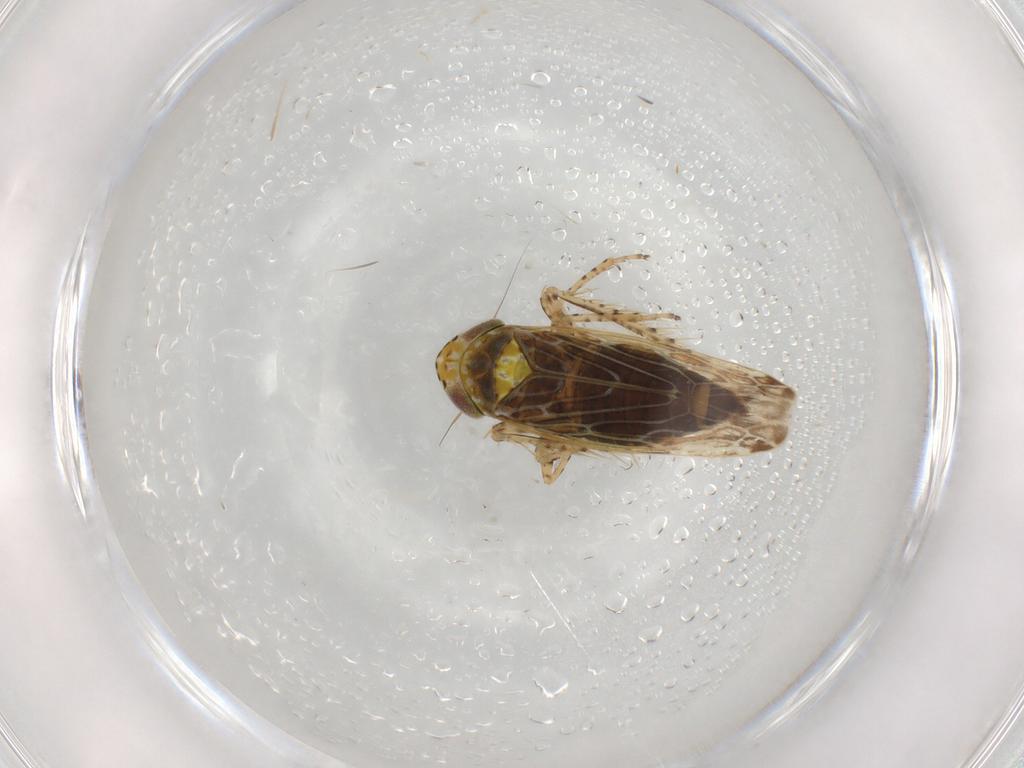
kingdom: Animalia
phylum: Arthropoda
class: Insecta
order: Hemiptera
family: Cicadellidae
